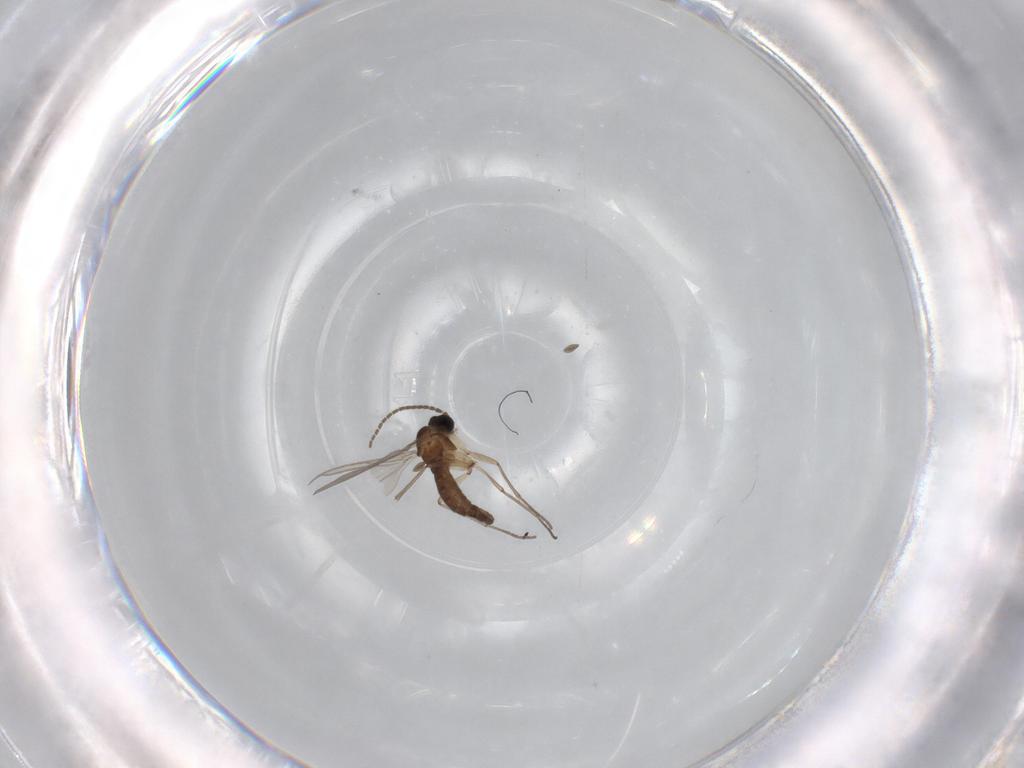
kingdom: Animalia
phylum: Arthropoda
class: Insecta
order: Diptera
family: Sciaridae
